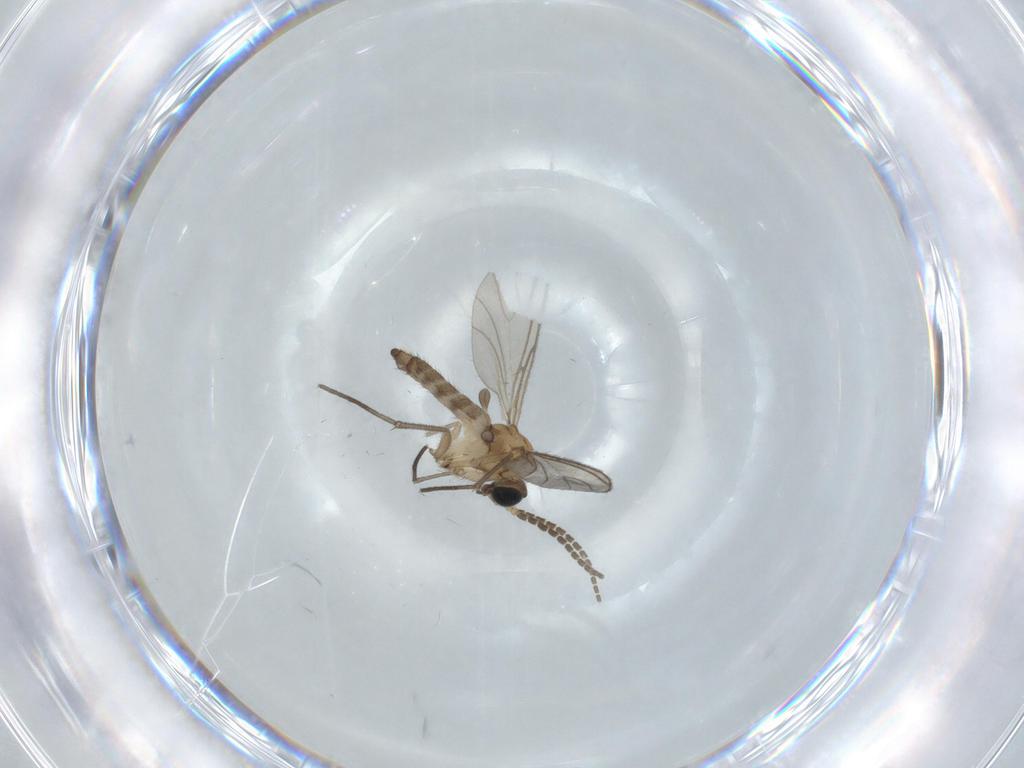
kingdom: Animalia
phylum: Arthropoda
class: Insecta
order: Diptera
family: Sciaridae
